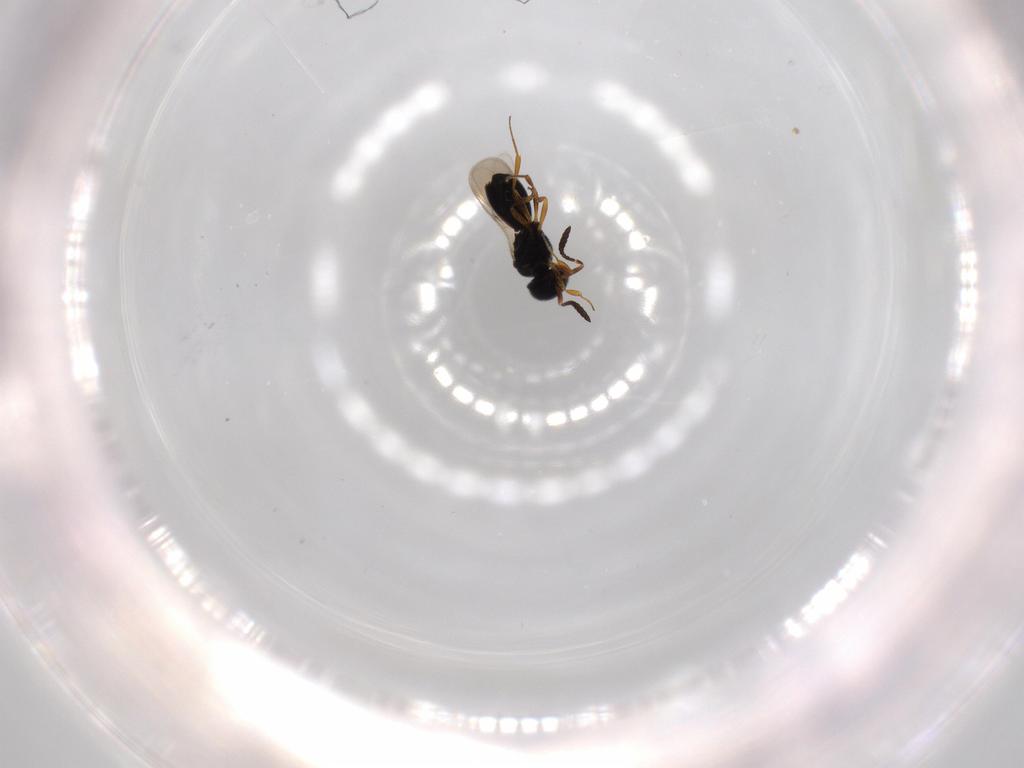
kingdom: Animalia
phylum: Arthropoda
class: Insecta
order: Hymenoptera
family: Scelionidae
